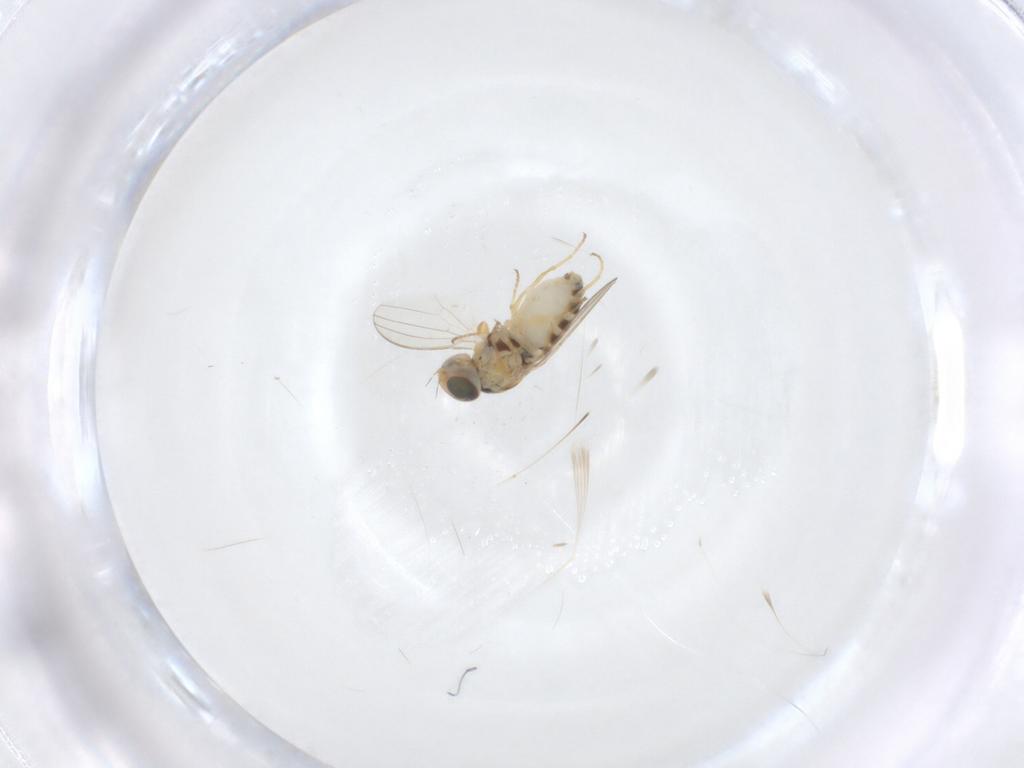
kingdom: Animalia
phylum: Arthropoda
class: Insecta
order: Diptera
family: Chyromyidae
